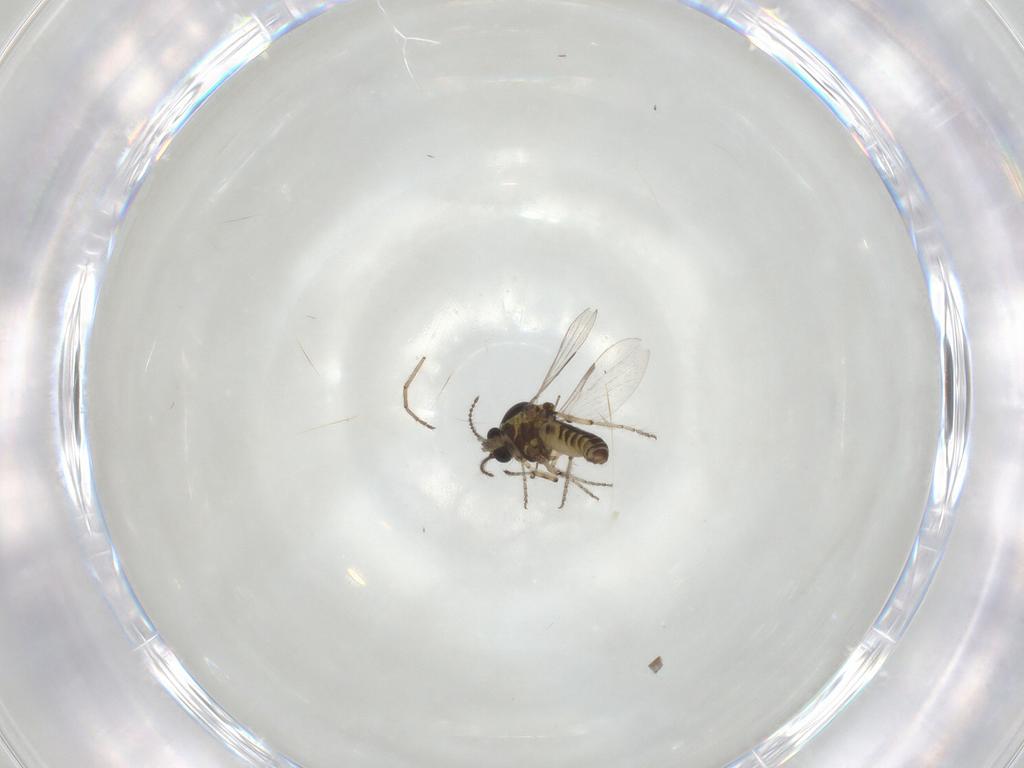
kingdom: Animalia
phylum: Arthropoda
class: Insecta
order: Diptera
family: Ceratopogonidae
